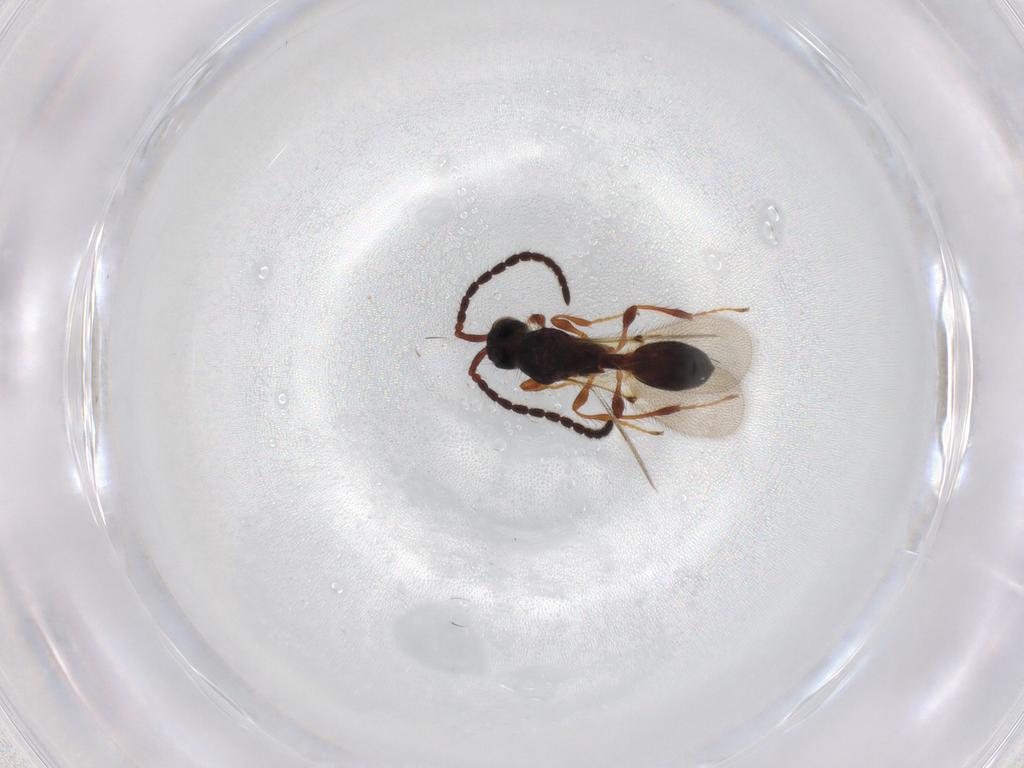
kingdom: Animalia
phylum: Arthropoda
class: Insecta
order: Hymenoptera
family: Diapriidae
